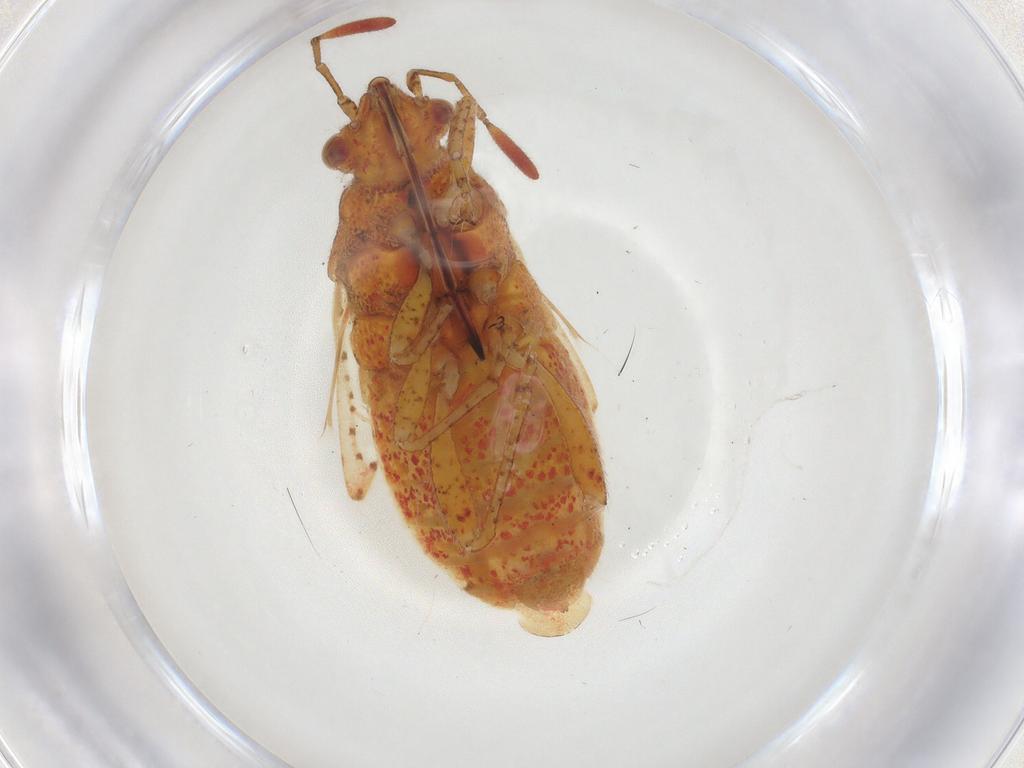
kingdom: Animalia
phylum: Arthropoda
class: Insecta
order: Hemiptera
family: Rhopalidae
